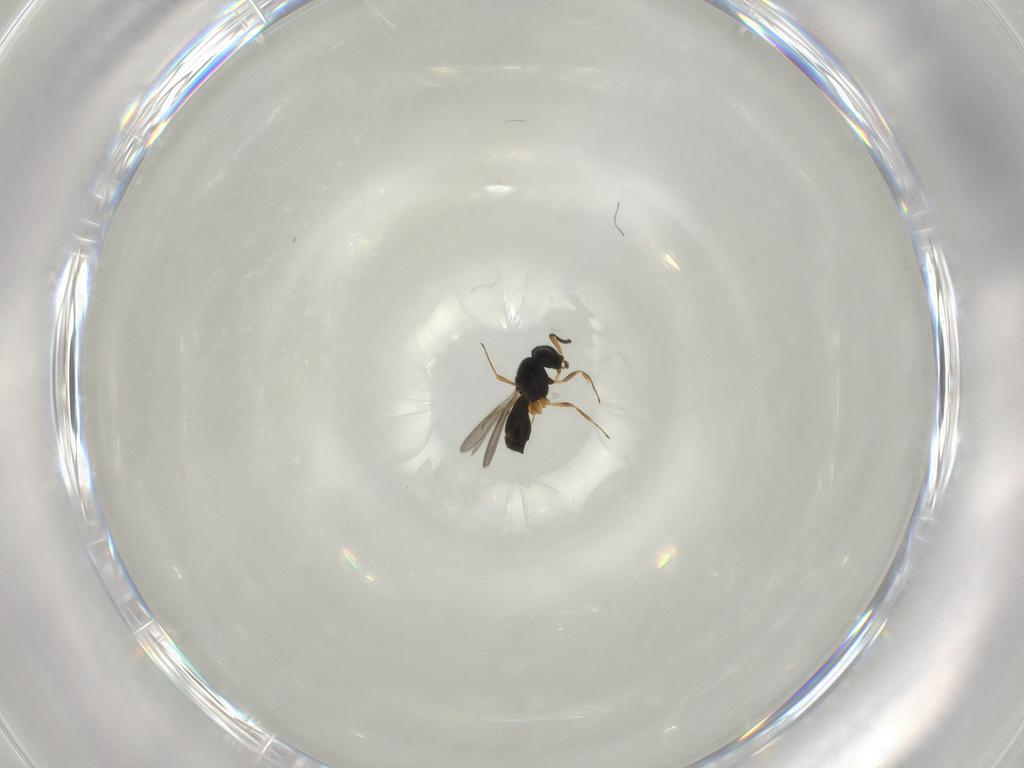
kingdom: Animalia
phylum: Arthropoda
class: Insecta
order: Hymenoptera
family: Scelionidae
